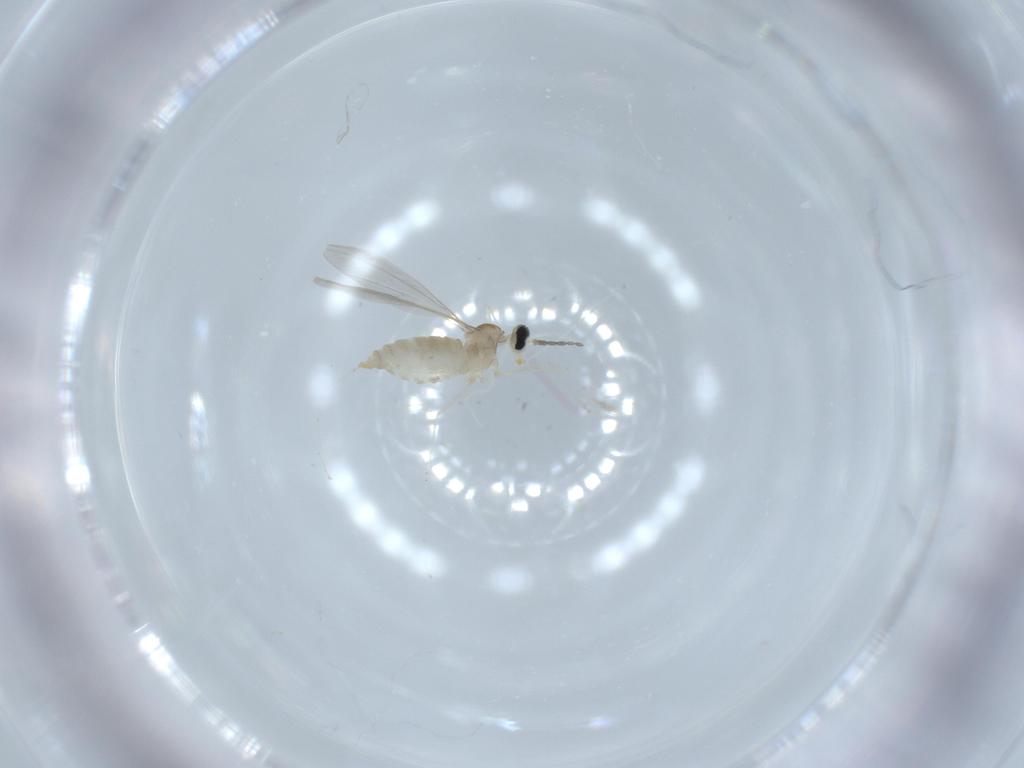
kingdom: Animalia
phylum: Arthropoda
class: Insecta
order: Diptera
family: Cecidomyiidae
